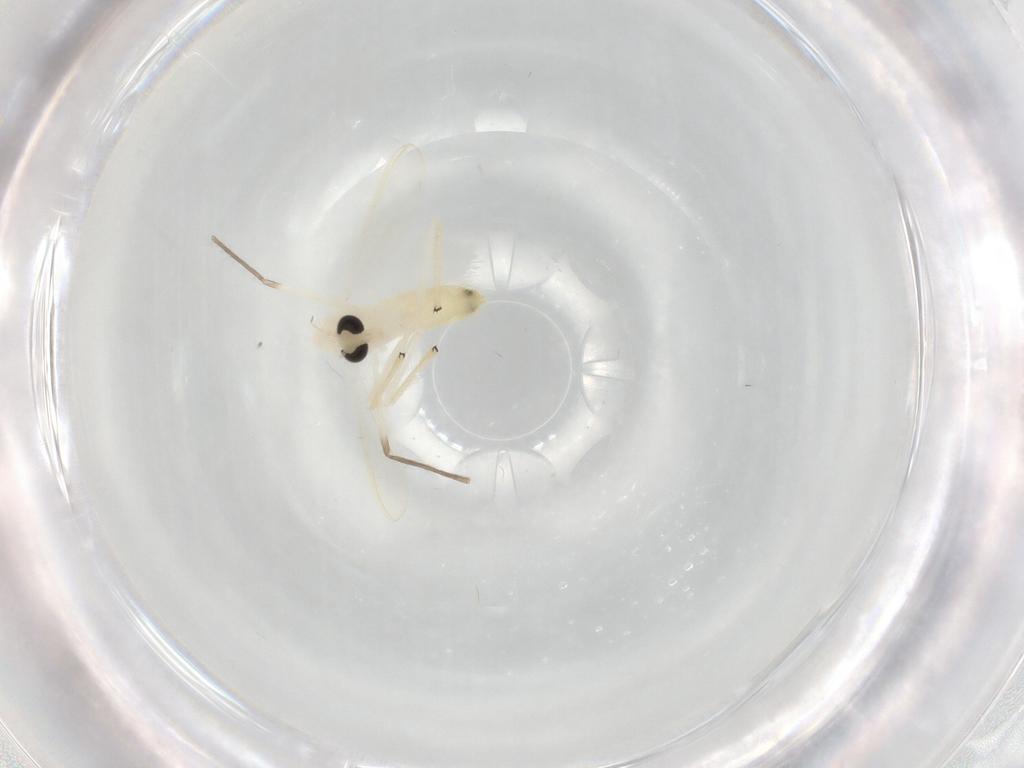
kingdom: Animalia
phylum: Arthropoda
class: Insecta
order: Diptera
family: Chironomidae
